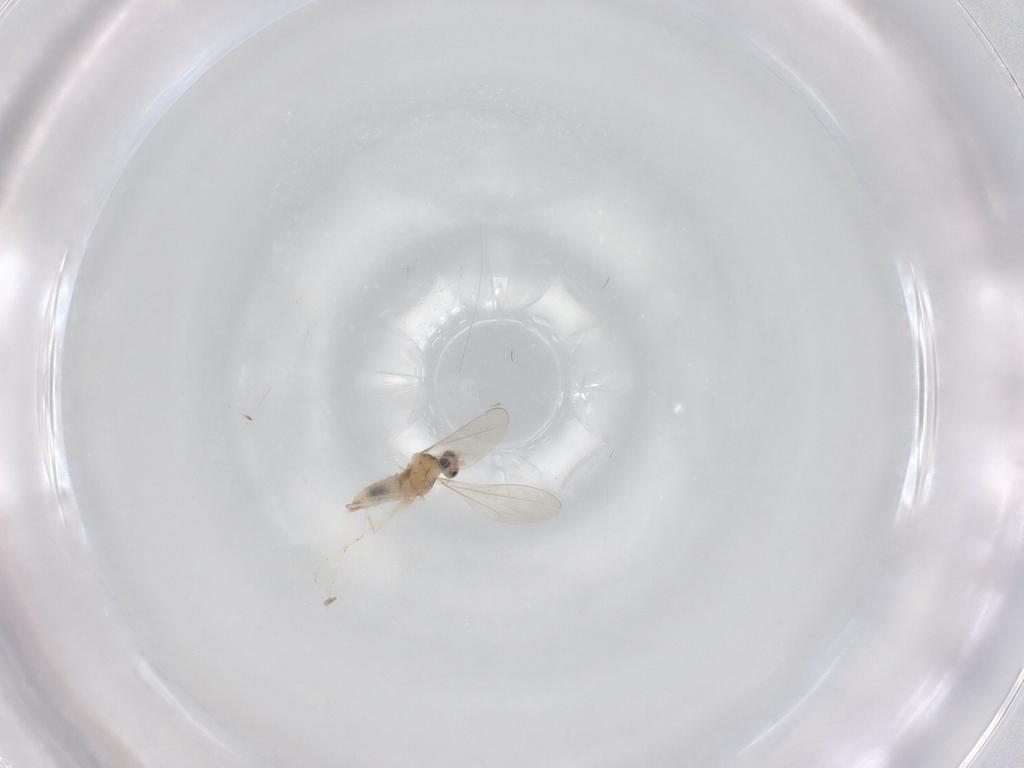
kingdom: Animalia
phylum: Arthropoda
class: Insecta
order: Diptera
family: Cecidomyiidae
